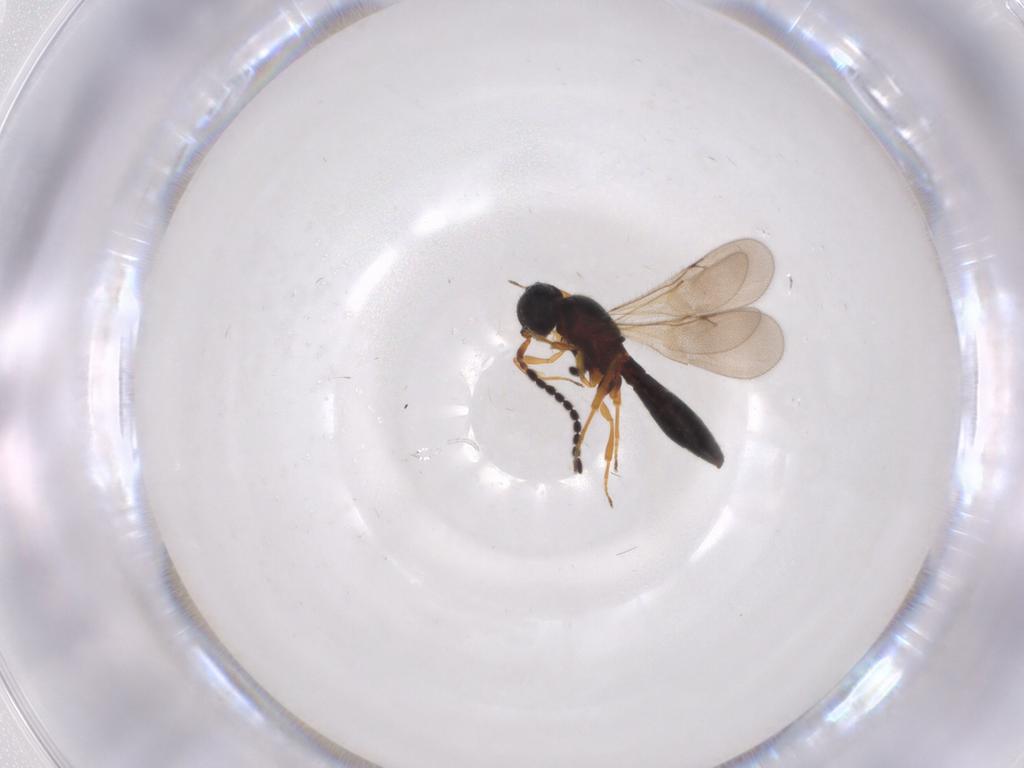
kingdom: Animalia
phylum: Arthropoda
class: Insecta
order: Hymenoptera
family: Scelionidae
